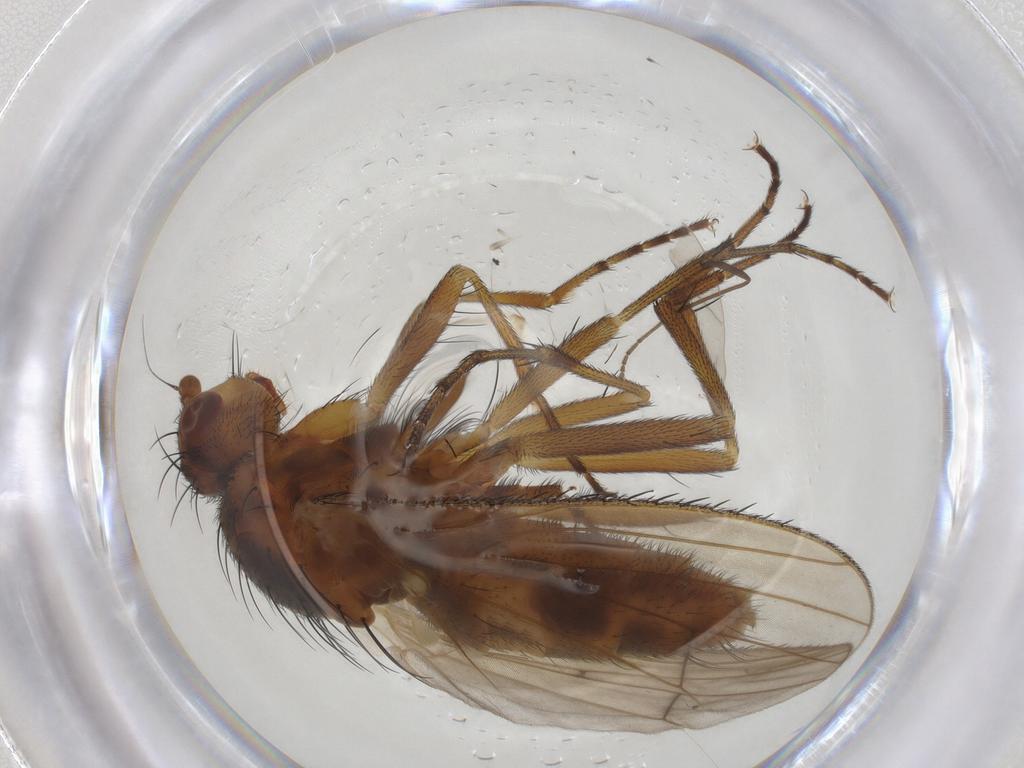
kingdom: Animalia
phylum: Arthropoda
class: Insecta
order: Diptera
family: Heleomyzidae
